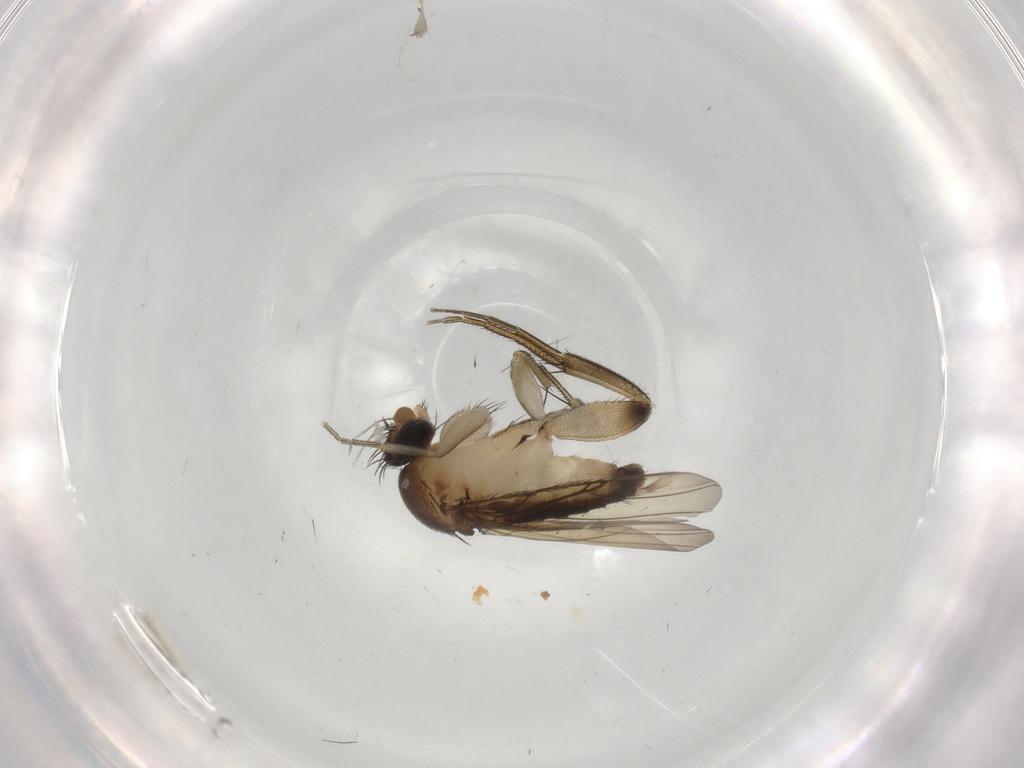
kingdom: Animalia
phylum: Arthropoda
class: Insecta
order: Diptera
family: Phoridae
